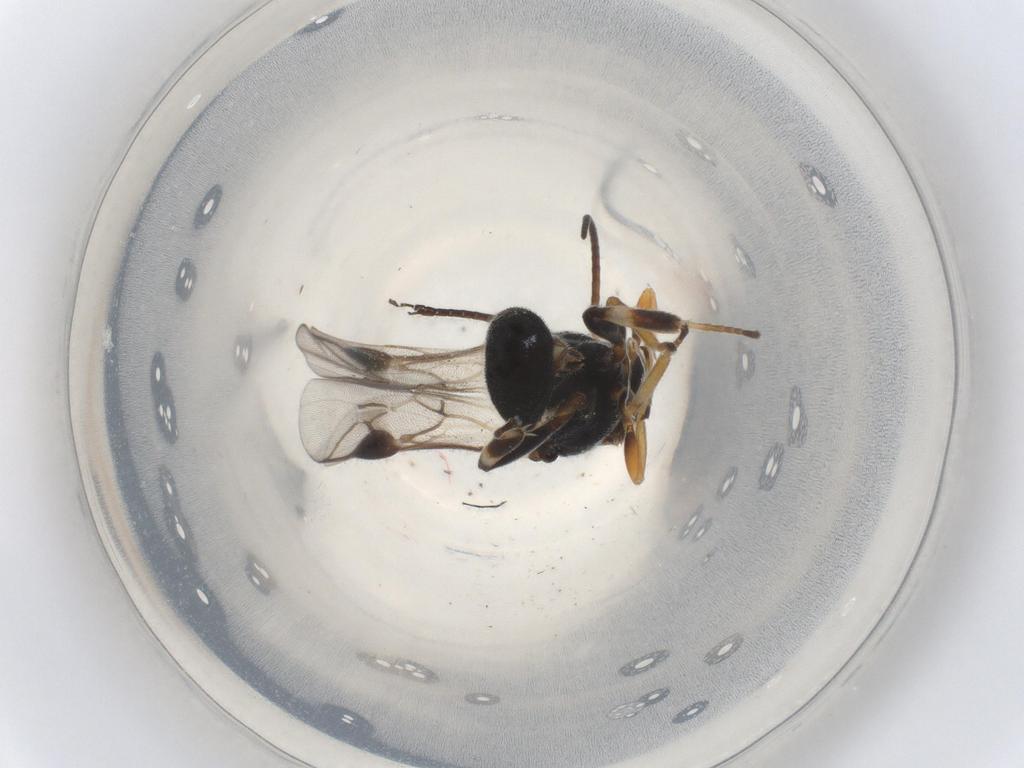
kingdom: Animalia
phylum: Arthropoda
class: Insecta
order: Hymenoptera
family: Braconidae
